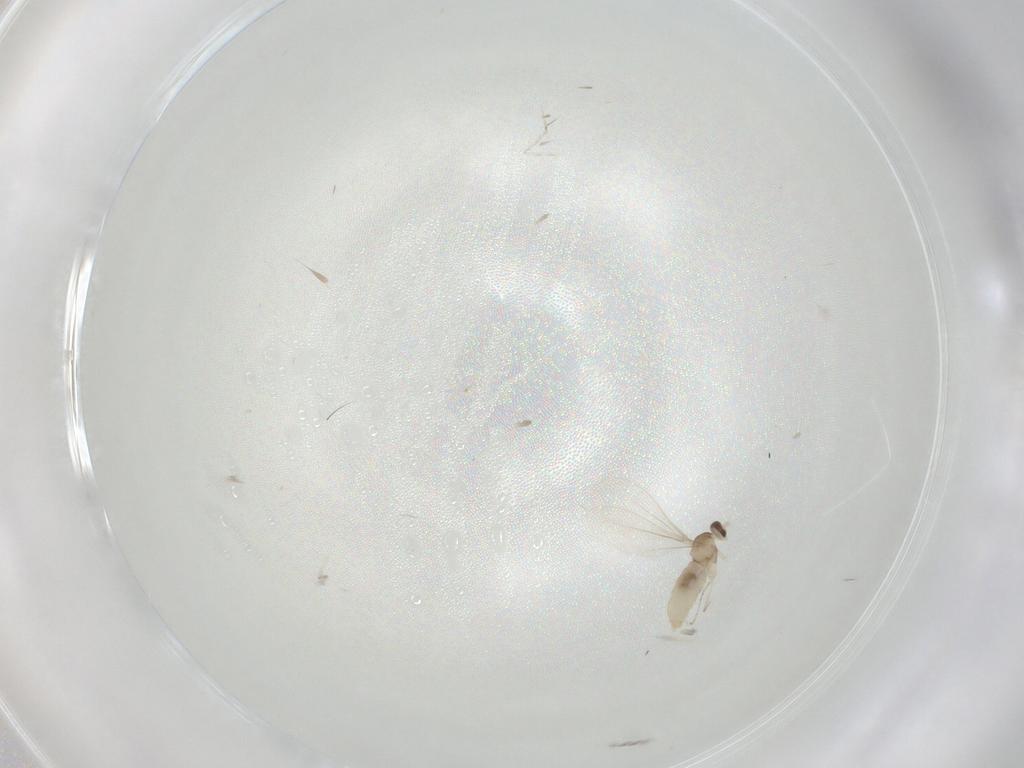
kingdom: Animalia
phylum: Arthropoda
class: Insecta
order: Diptera
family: Cecidomyiidae
